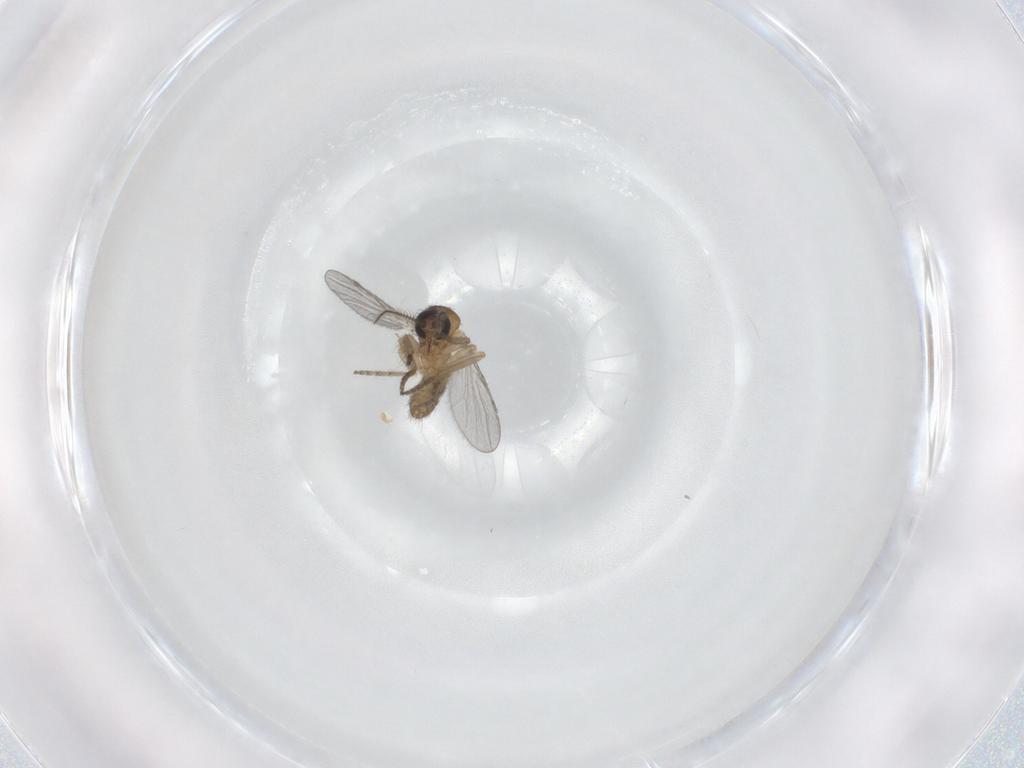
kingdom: Animalia
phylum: Arthropoda
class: Insecta
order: Diptera
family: Ceratopogonidae
